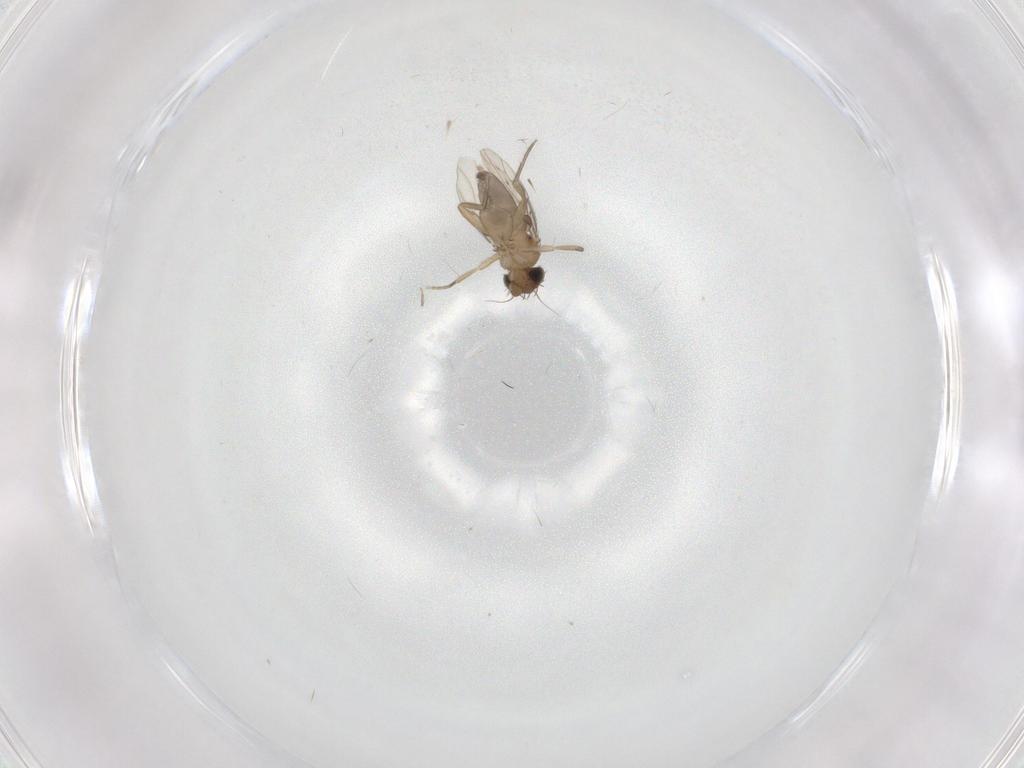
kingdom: Animalia
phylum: Arthropoda
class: Insecta
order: Diptera
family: Phoridae
